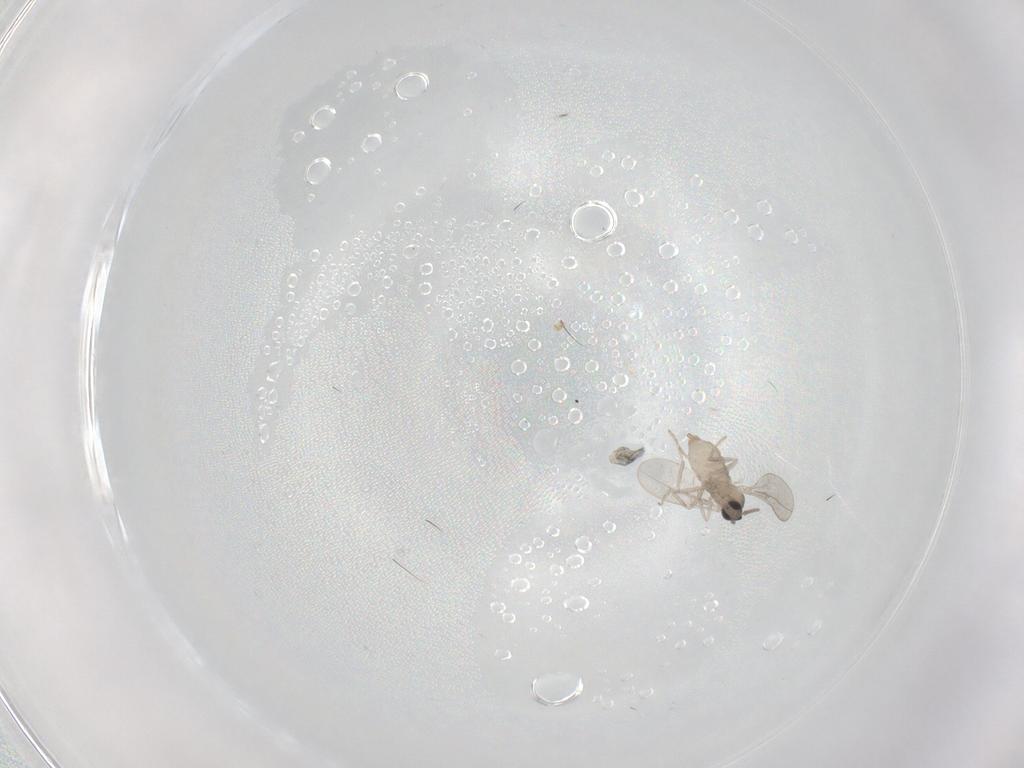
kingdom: Animalia
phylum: Arthropoda
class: Insecta
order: Diptera
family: Cecidomyiidae
